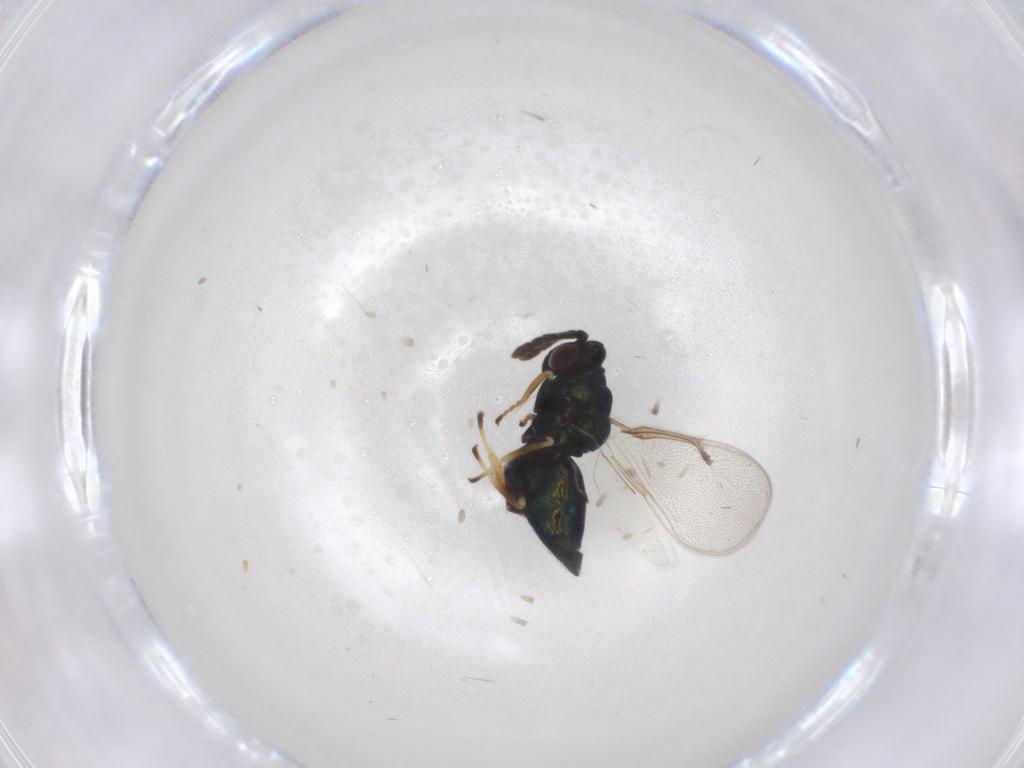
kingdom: Animalia
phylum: Arthropoda
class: Insecta
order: Hymenoptera
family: Eulophidae
